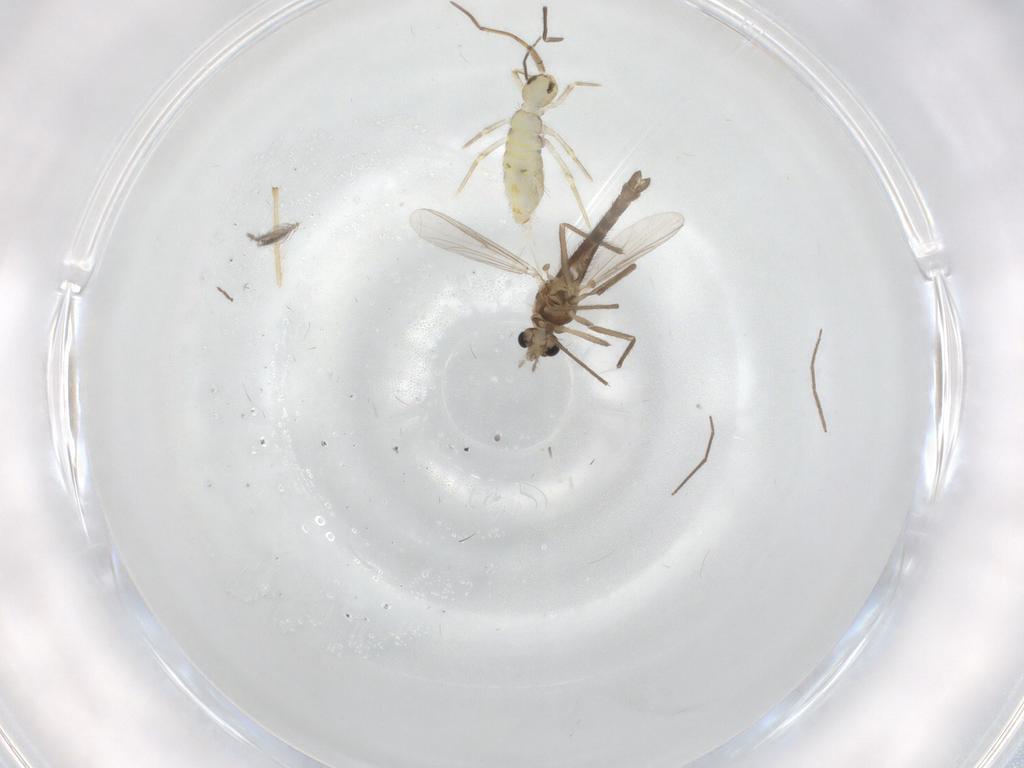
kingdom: Animalia
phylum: Arthropoda
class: Insecta
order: Diptera
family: Chironomidae
